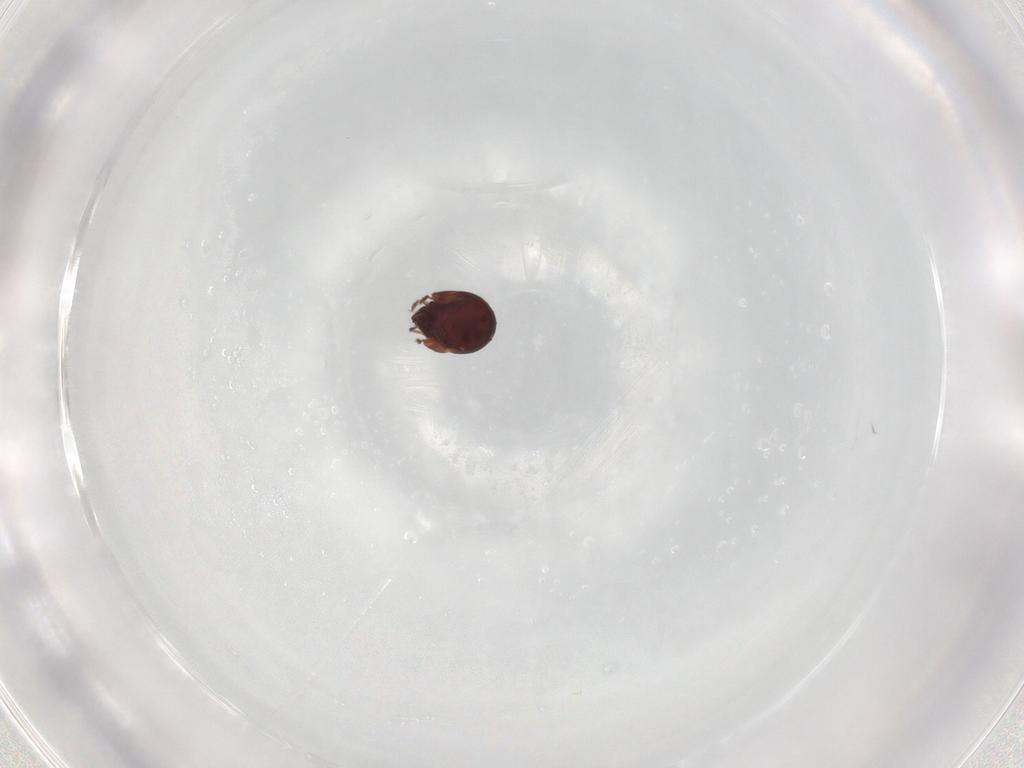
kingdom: Animalia
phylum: Arthropoda
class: Arachnida
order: Sarcoptiformes
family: Humerobatidae
